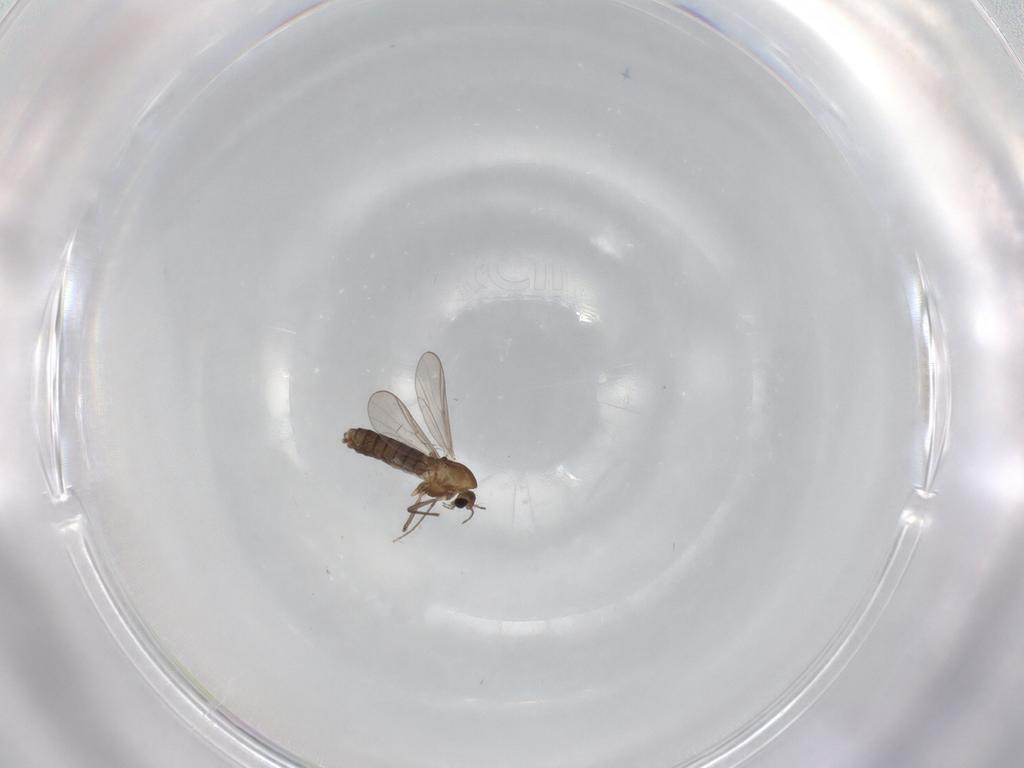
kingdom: Animalia
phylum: Arthropoda
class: Insecta
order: Diptera
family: Chironomidae
